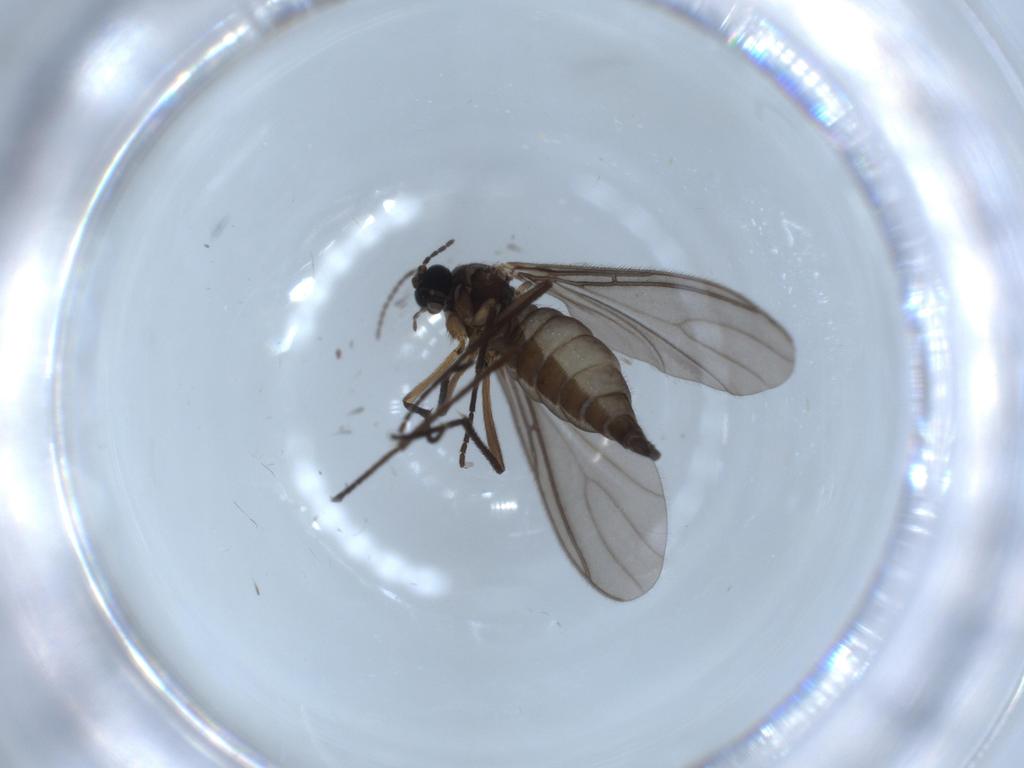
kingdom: Animalia
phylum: Arthropoda
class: Insecta
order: Diptera
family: Sciaridae
